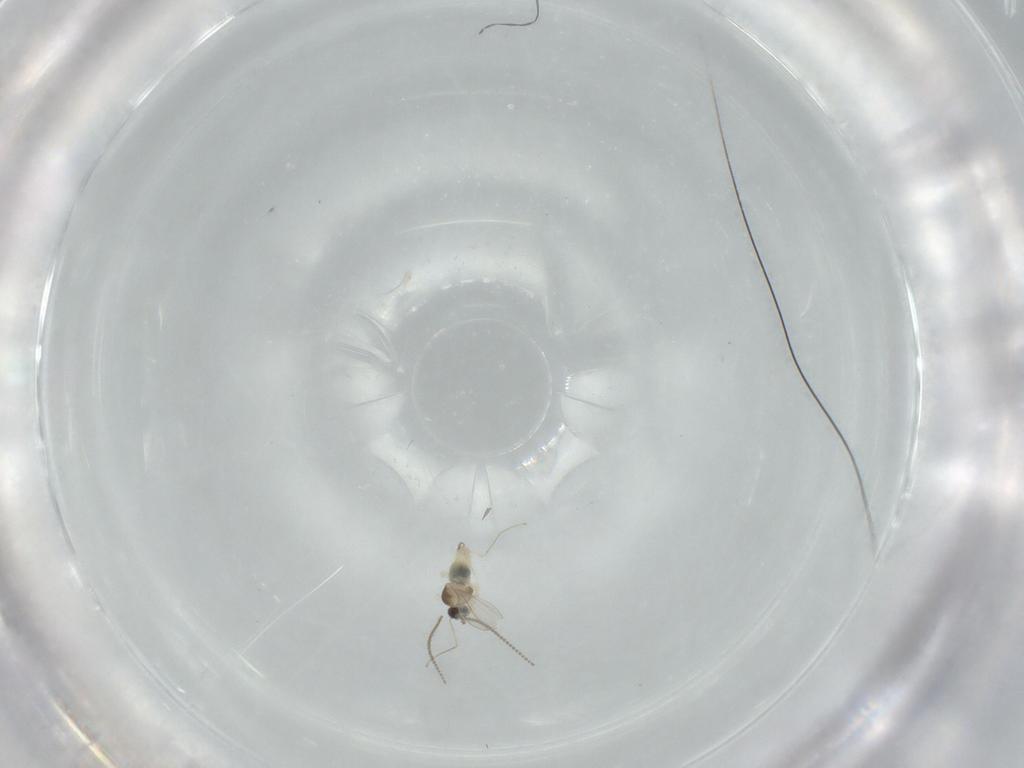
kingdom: Animalia
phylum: Arthropoda
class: Insecta
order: Diptera
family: Cecidomyiidae
